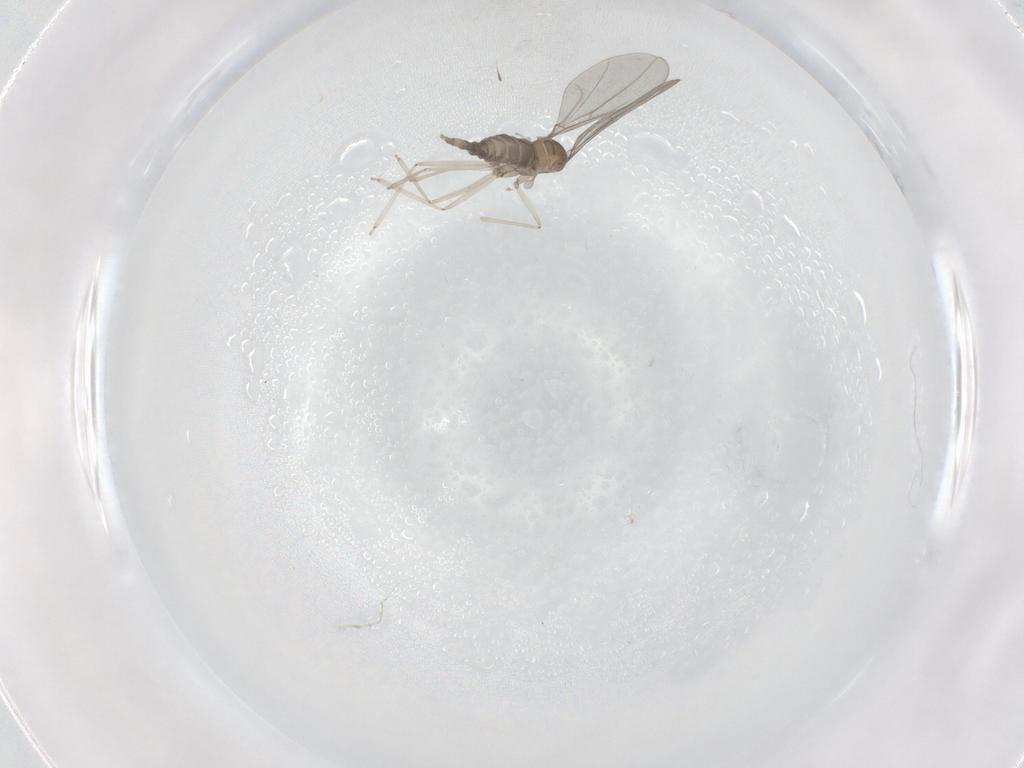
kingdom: Animalia
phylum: Arthropoda
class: Insecta
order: Diptera
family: Cecidomyiidae
